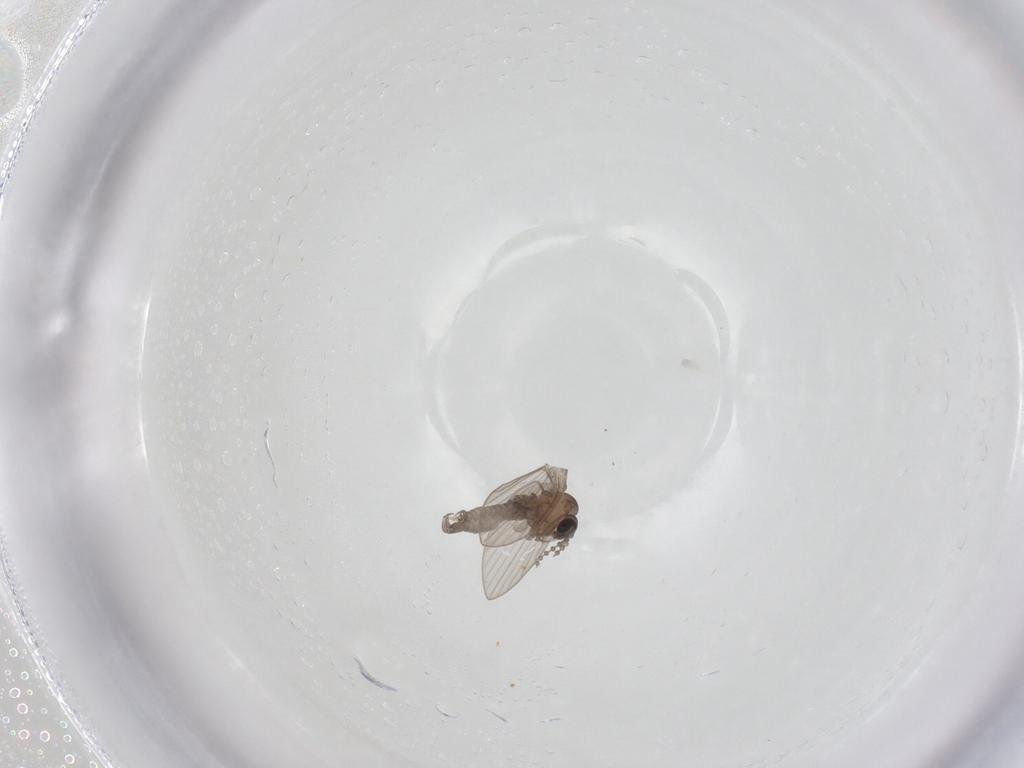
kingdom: Animalia
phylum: Arthropoda
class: Insecta
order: Diptera
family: Psychodidae
